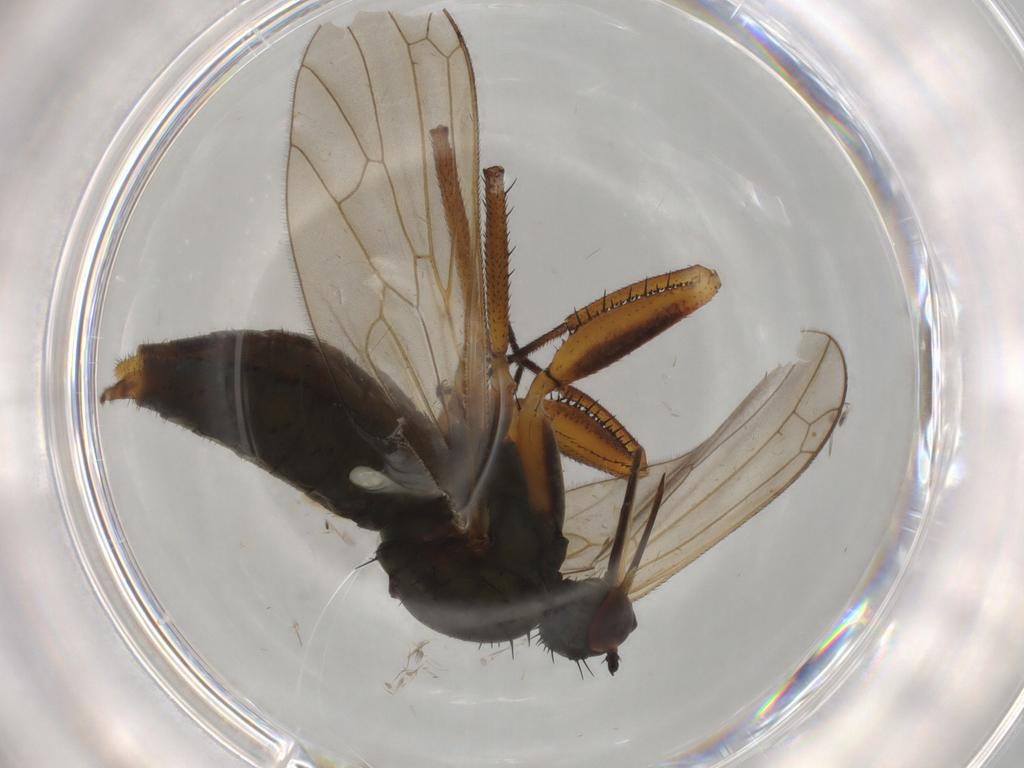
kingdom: Animalia
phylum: Arthropoda
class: Insecta
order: Diptera
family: Empididae
